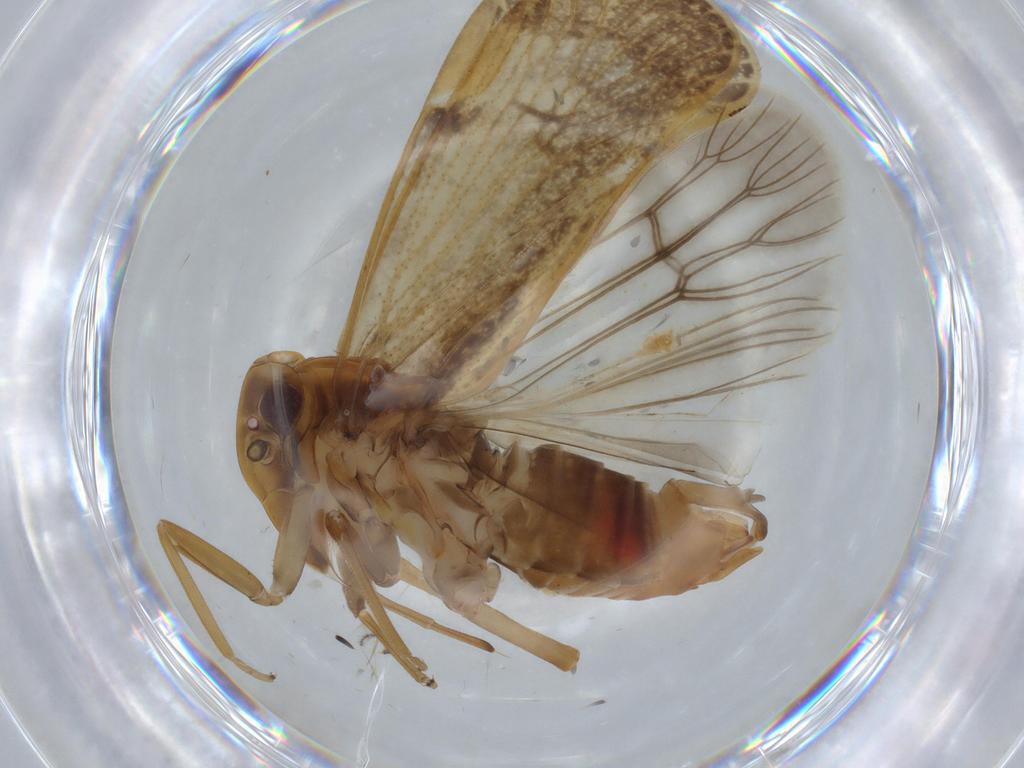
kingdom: Animalia
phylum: Arthropoda
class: Insecta
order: Hemiptera
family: Cixiidae
